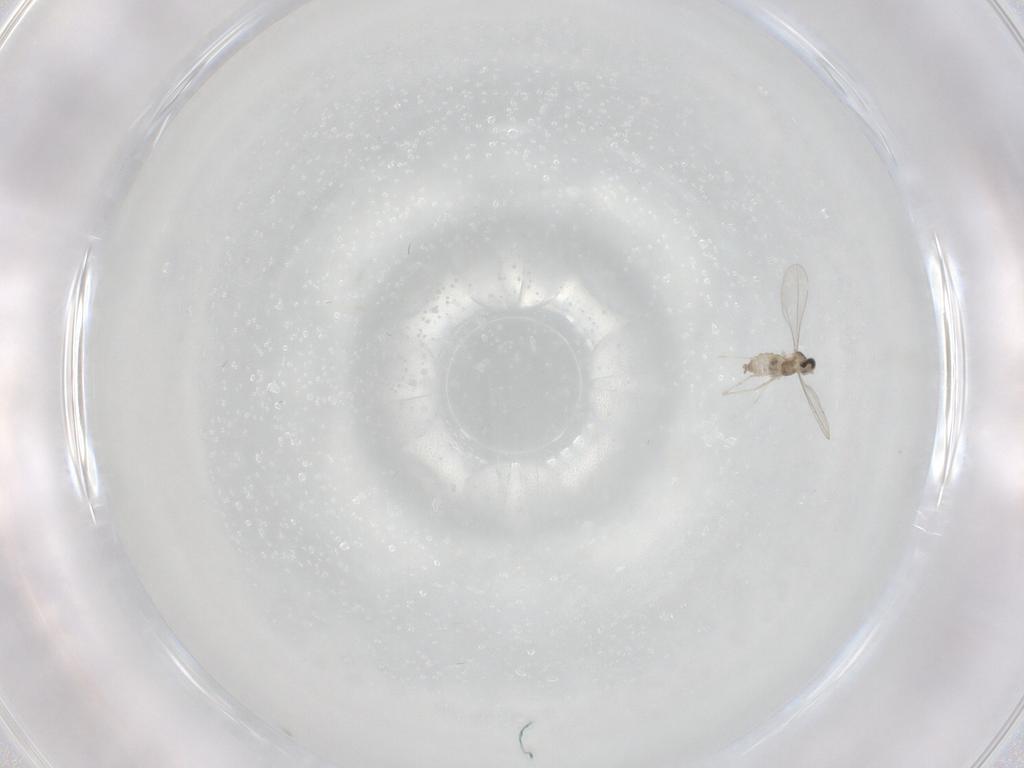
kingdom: Animalia
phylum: Arthropoda
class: Insecta
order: Diptera
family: Cecidomyiidae
